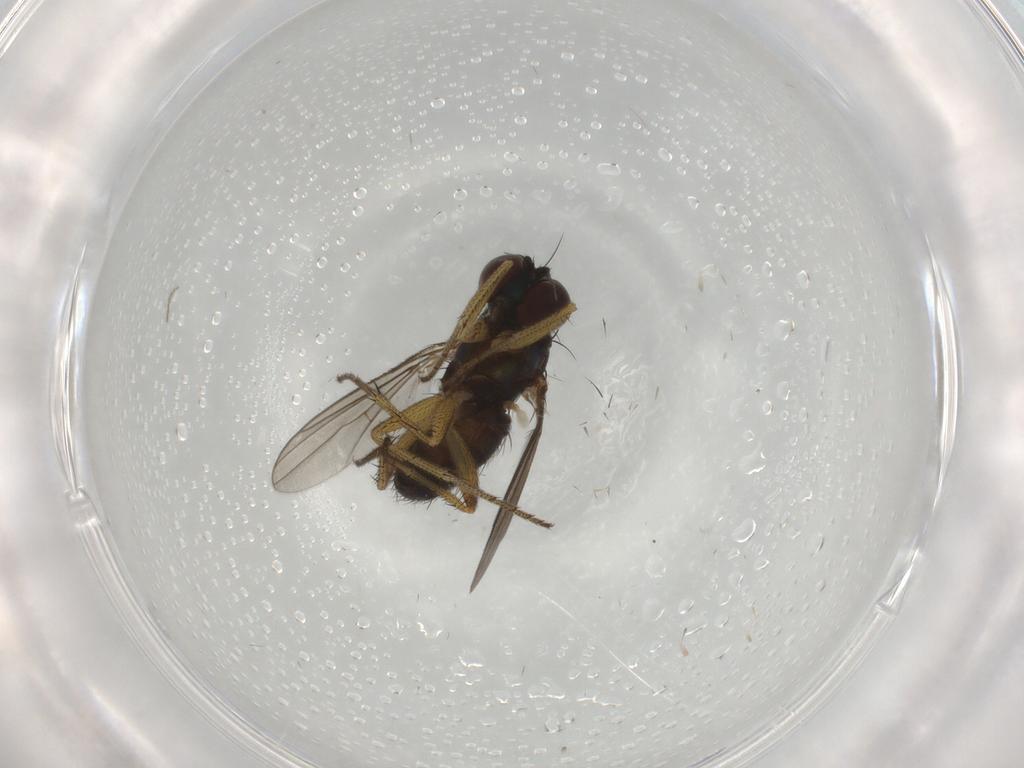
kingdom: Animalia
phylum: Arthropoda
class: Insecta
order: Diptera
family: Dolichopodidae
